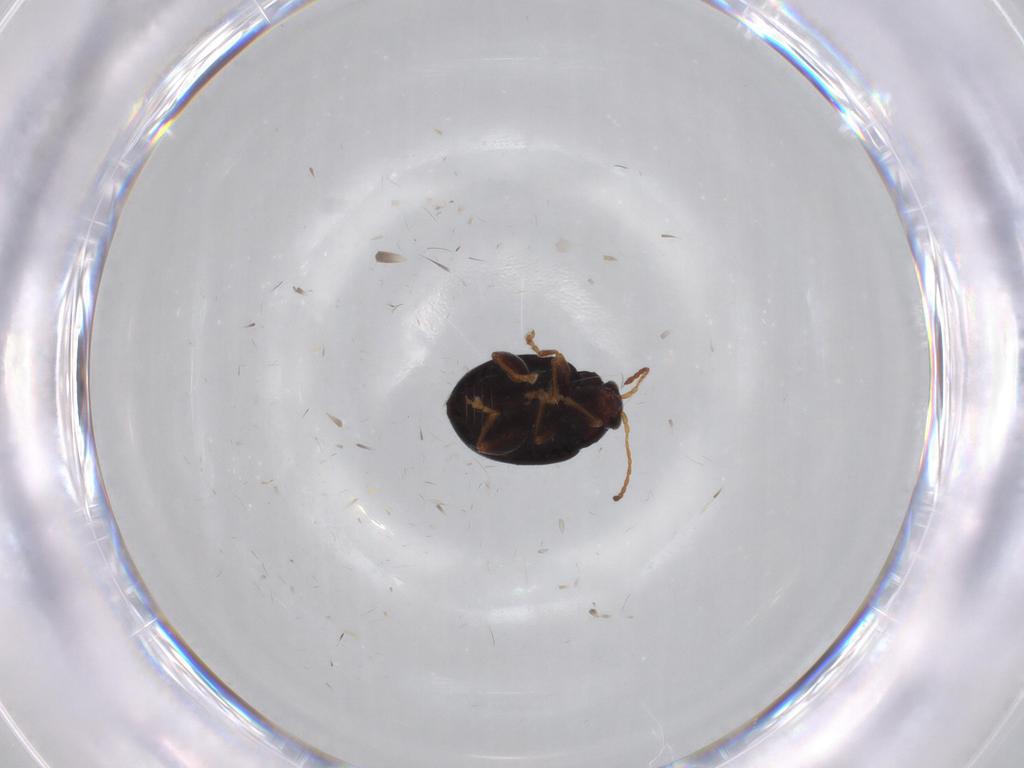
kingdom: Animalia
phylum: Arthropoda
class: Insecta
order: Coleoptera
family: Chrysomelidae
